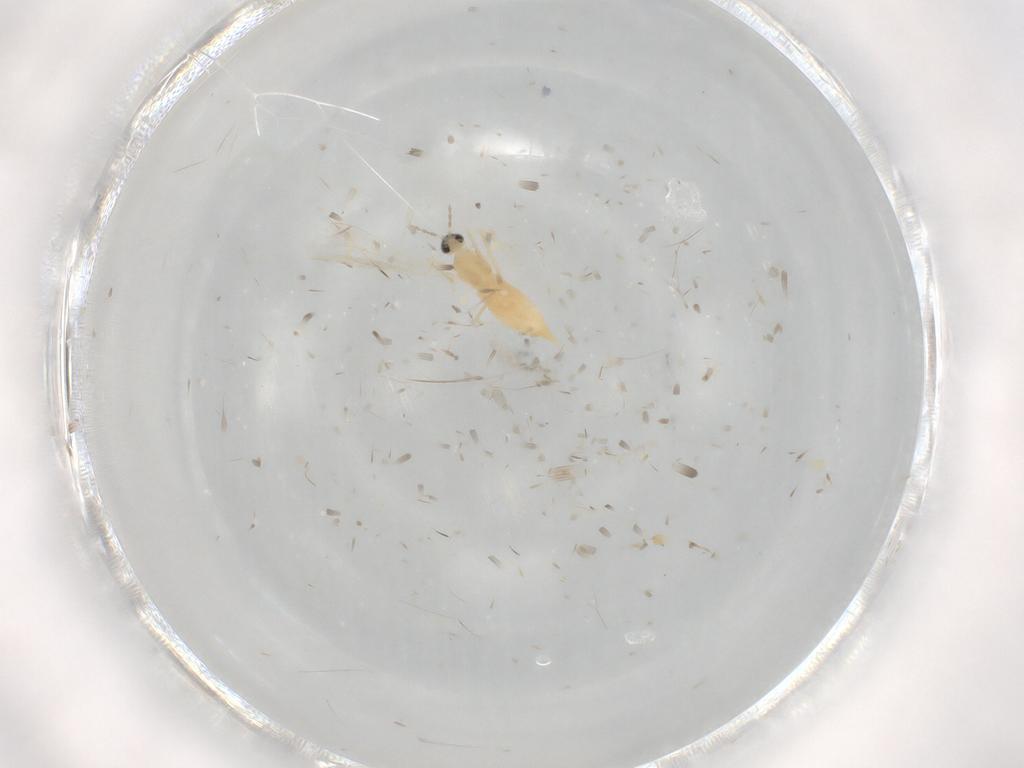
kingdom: Animalia
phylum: Arthropoda
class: Insecta
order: Diptera
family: Cecidomyiidae
